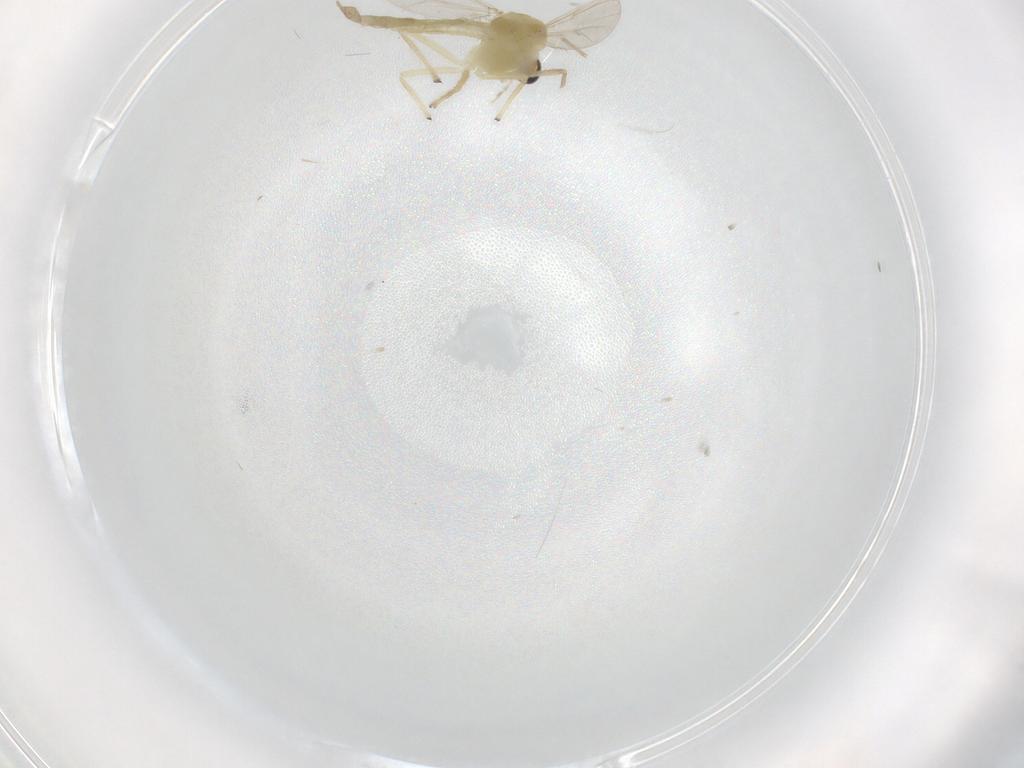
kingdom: Animalia
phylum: Arthropoda
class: Insecta
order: Diptera
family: Chironomidae
